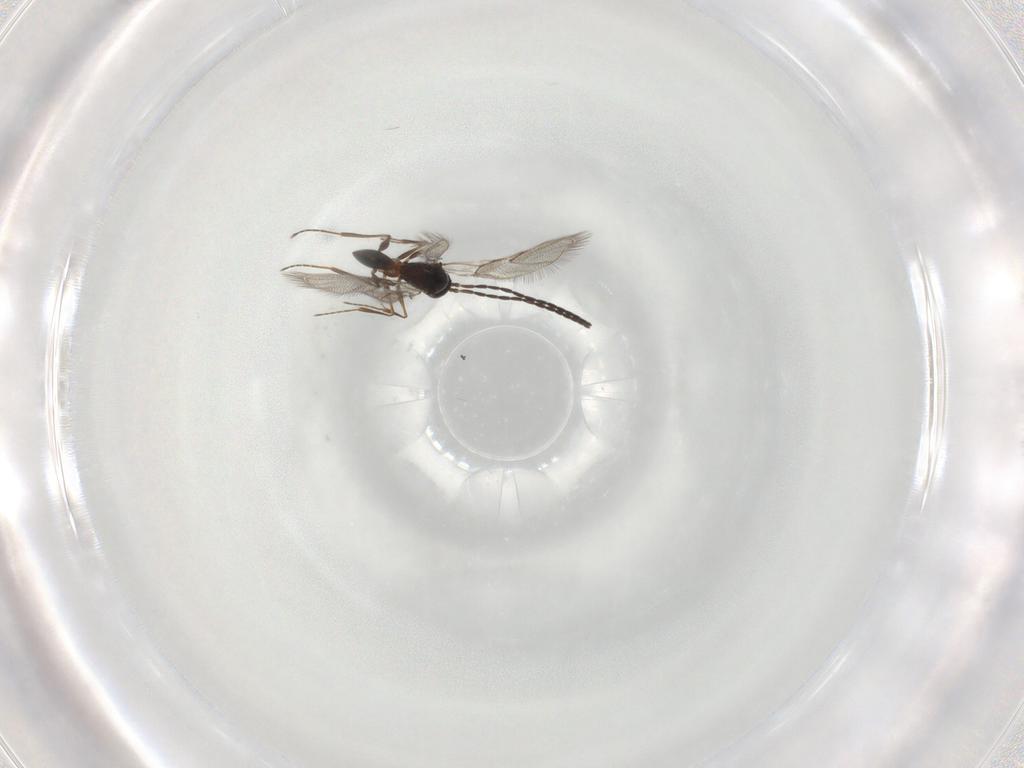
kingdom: Animalia
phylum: Arthropoda
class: Insecta
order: Hymenoptera
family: Figitidae
